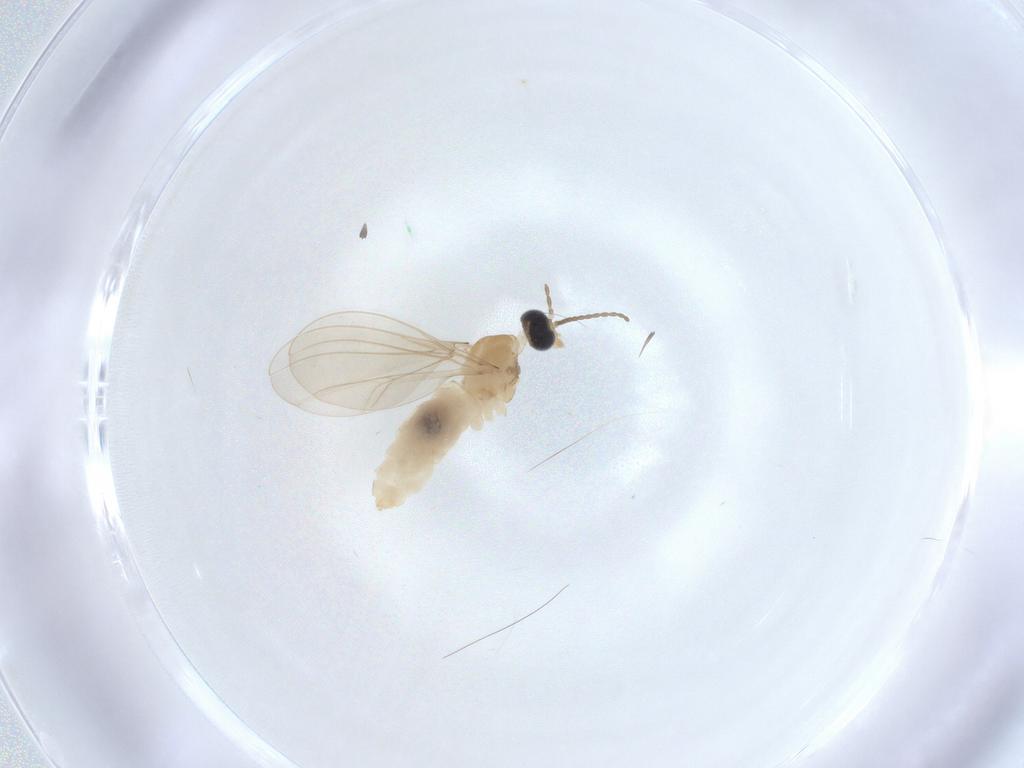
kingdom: Animalia
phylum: Arthropoda
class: Insecta
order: Diptera
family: Cecidomyiidae
